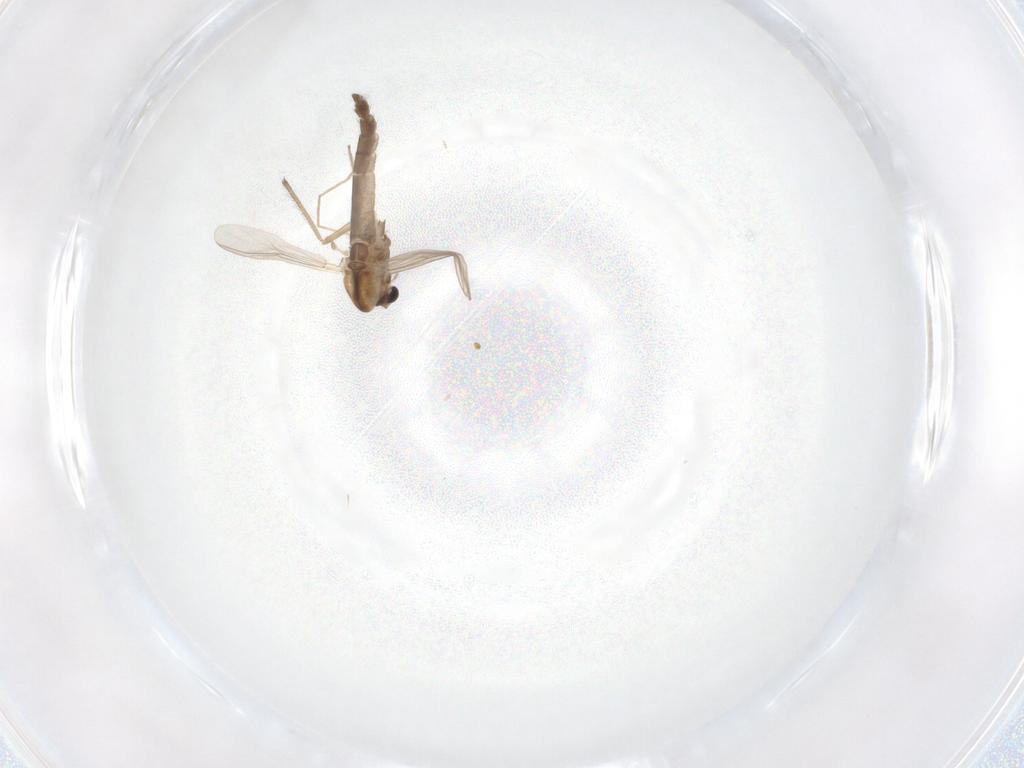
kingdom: Animalia
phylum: Arthropoda
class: Insecta
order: Diptera
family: Chironomidae
